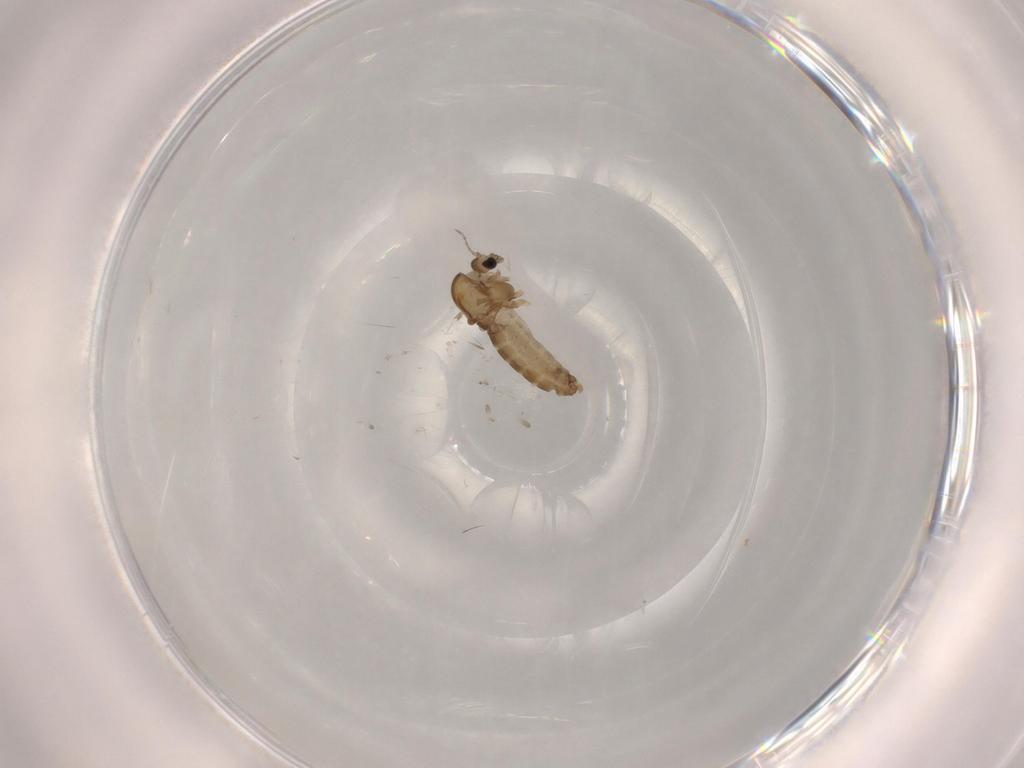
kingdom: Animalia
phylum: Arthropoda
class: Insecta
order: Diptera
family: Chironomidae
